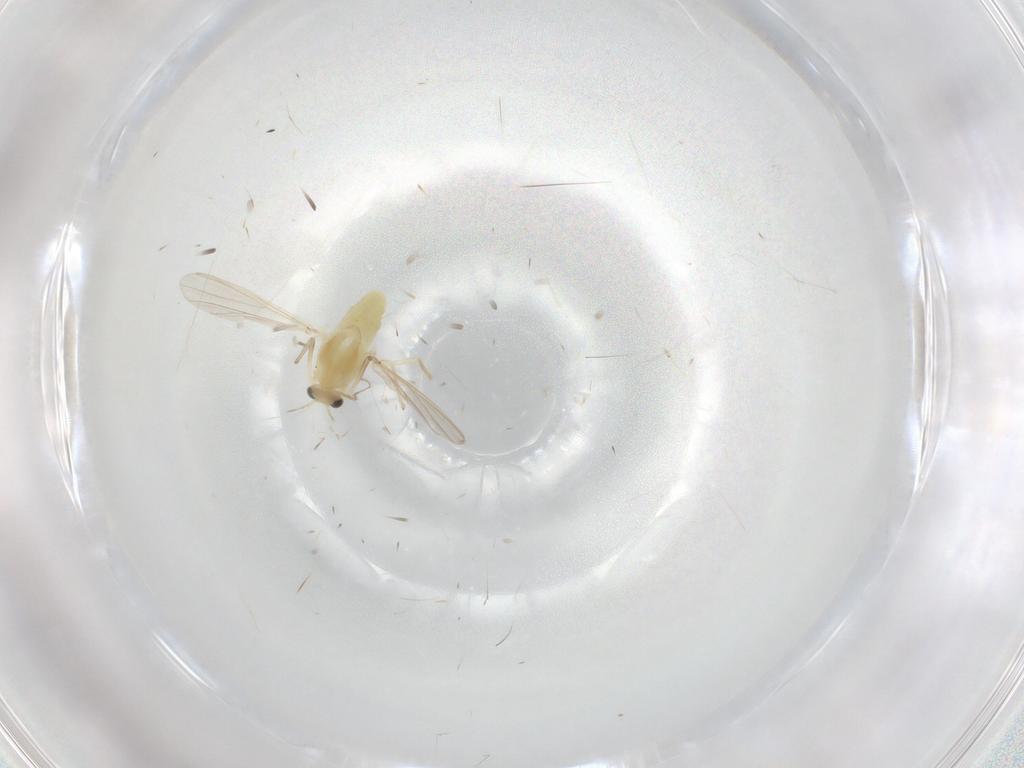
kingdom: Animalia
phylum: Arthropoda
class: Insecta
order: Diptera
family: Chironomidae
